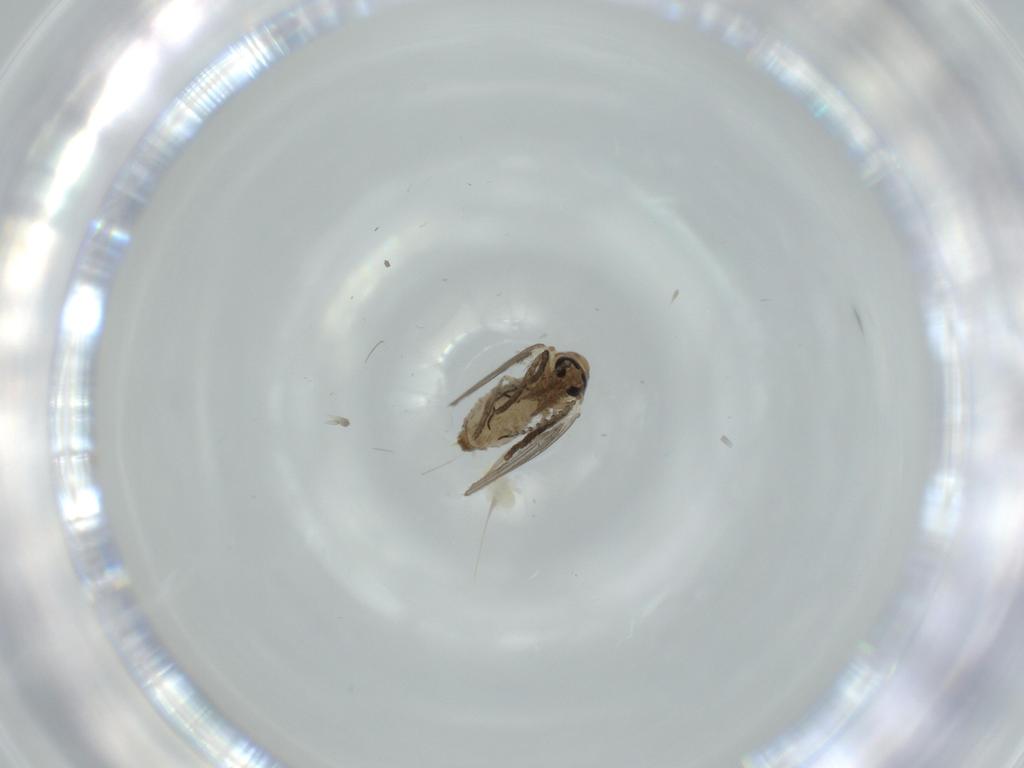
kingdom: Animalia
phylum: Arthropoda
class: Insecta
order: Diptera
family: Psychodidae
